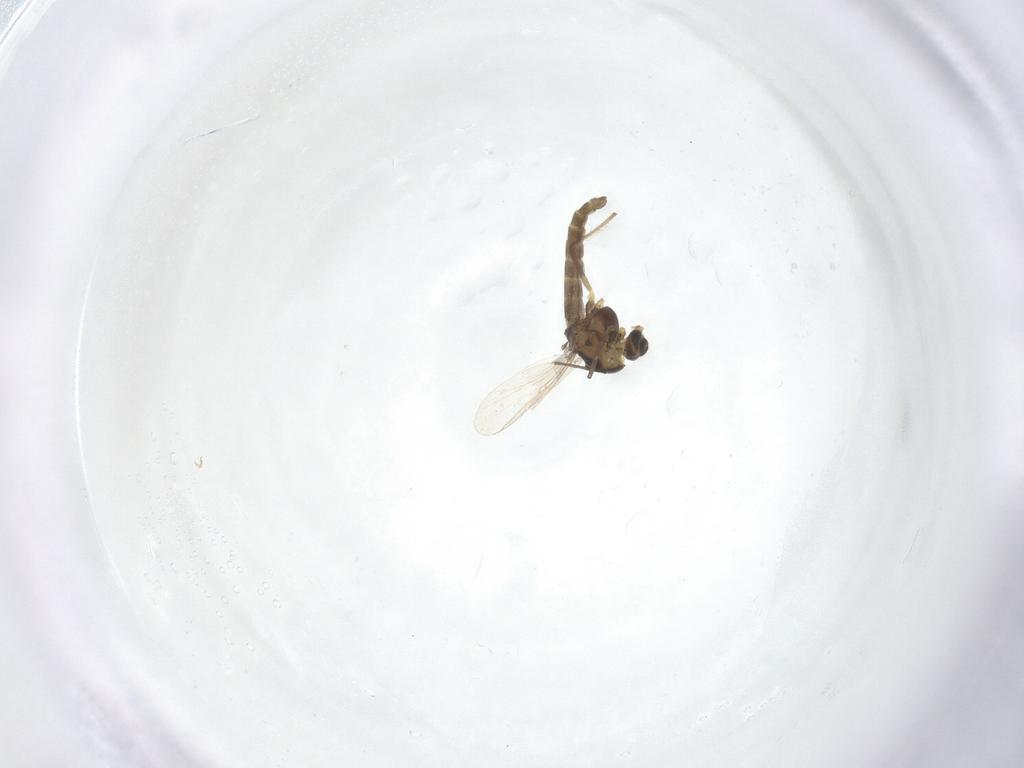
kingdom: Animalia
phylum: Arthropoda
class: Insecta
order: Diptera
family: Chironomidae
